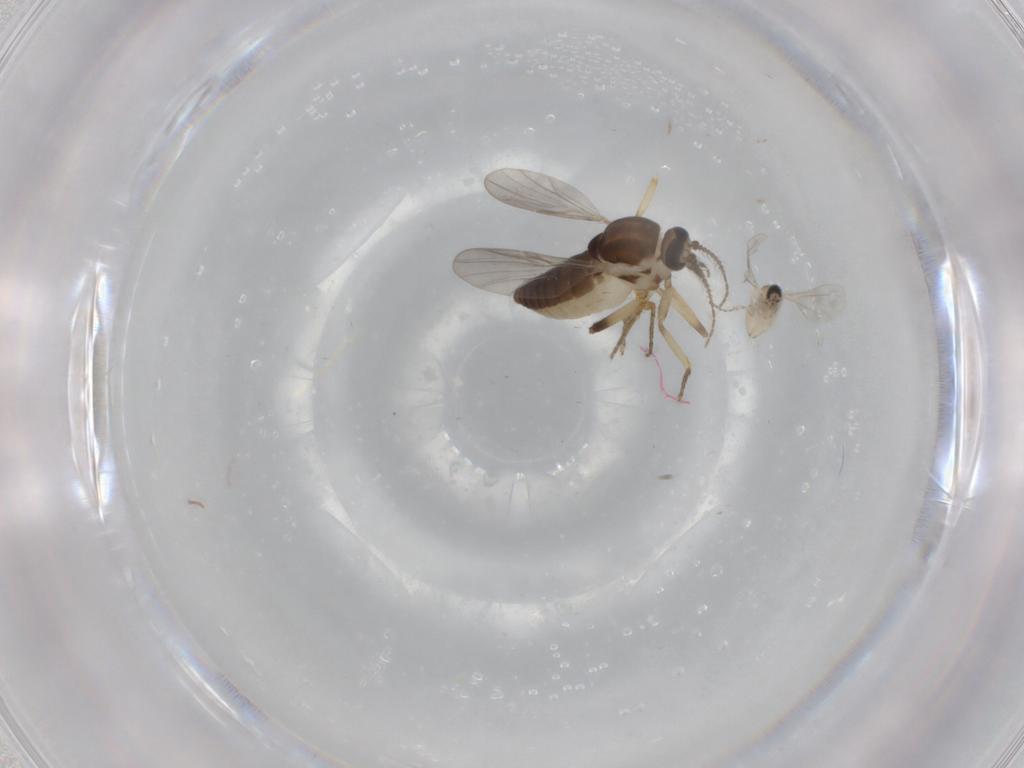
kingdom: Animalia
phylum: Arthropoda
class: Insecta
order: Diptera
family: Ceratopogonidae
